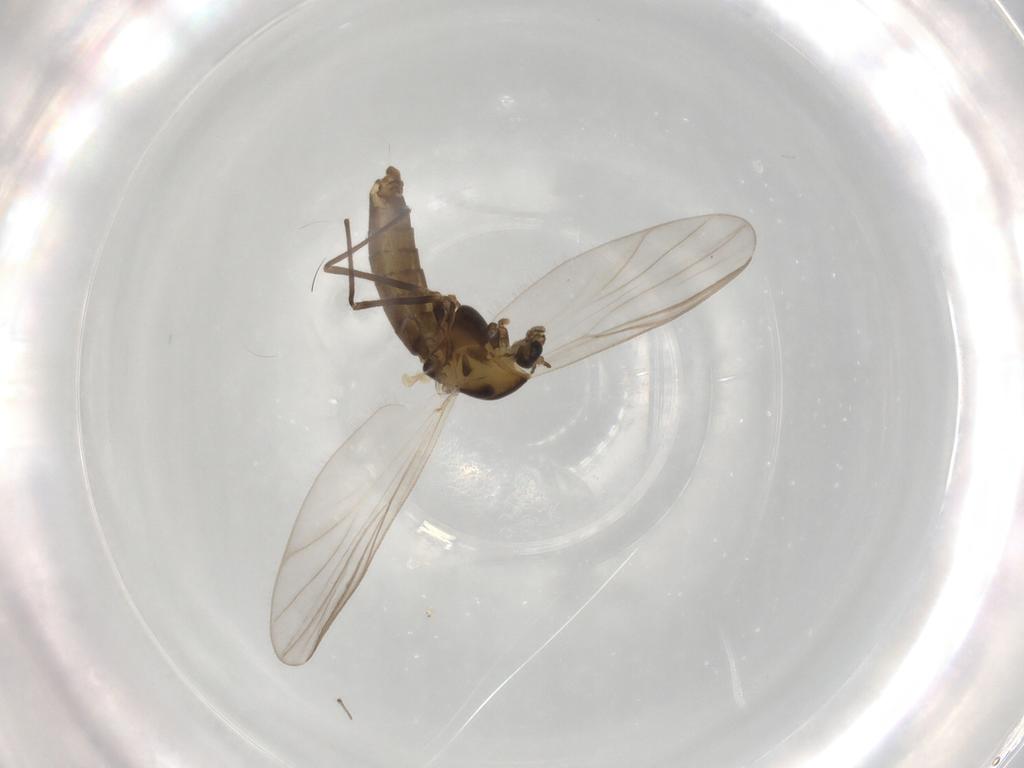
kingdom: Animalia
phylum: Arthropoda
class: Insecta
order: Diptera
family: Chironomidae
